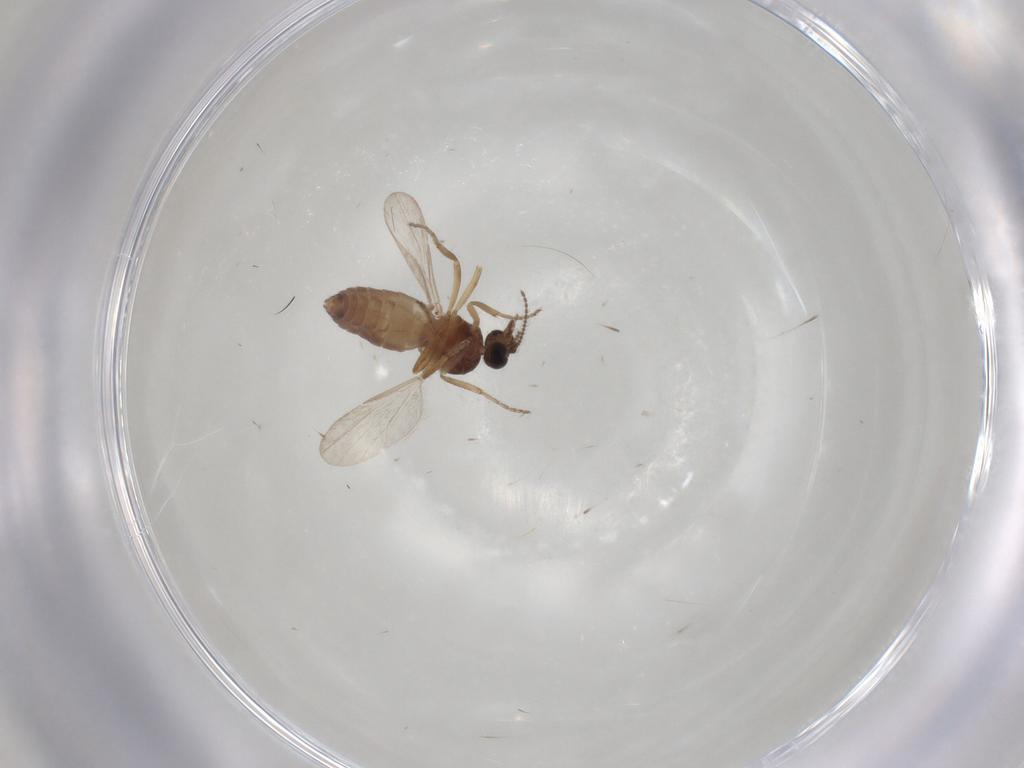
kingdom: Animalia
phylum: Arthropoda
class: Insecta
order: Diptera
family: Ceratopogonidae
